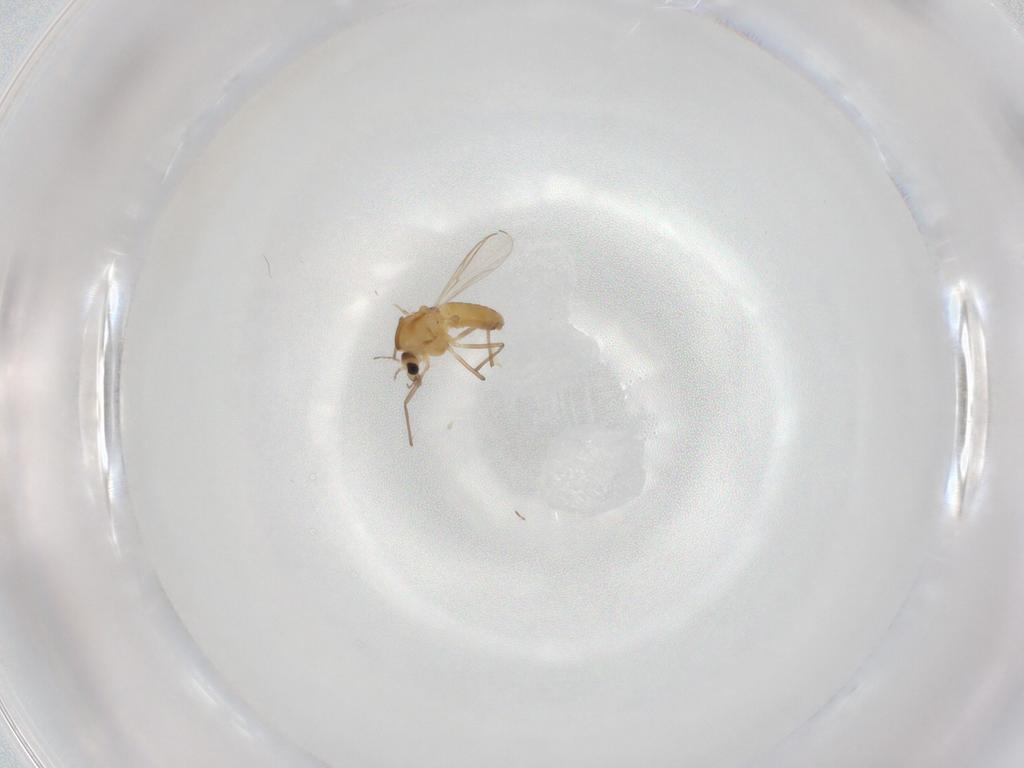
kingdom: Animalia
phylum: Arthropoda
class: Insecta
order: Diptera
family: Chironomidae
